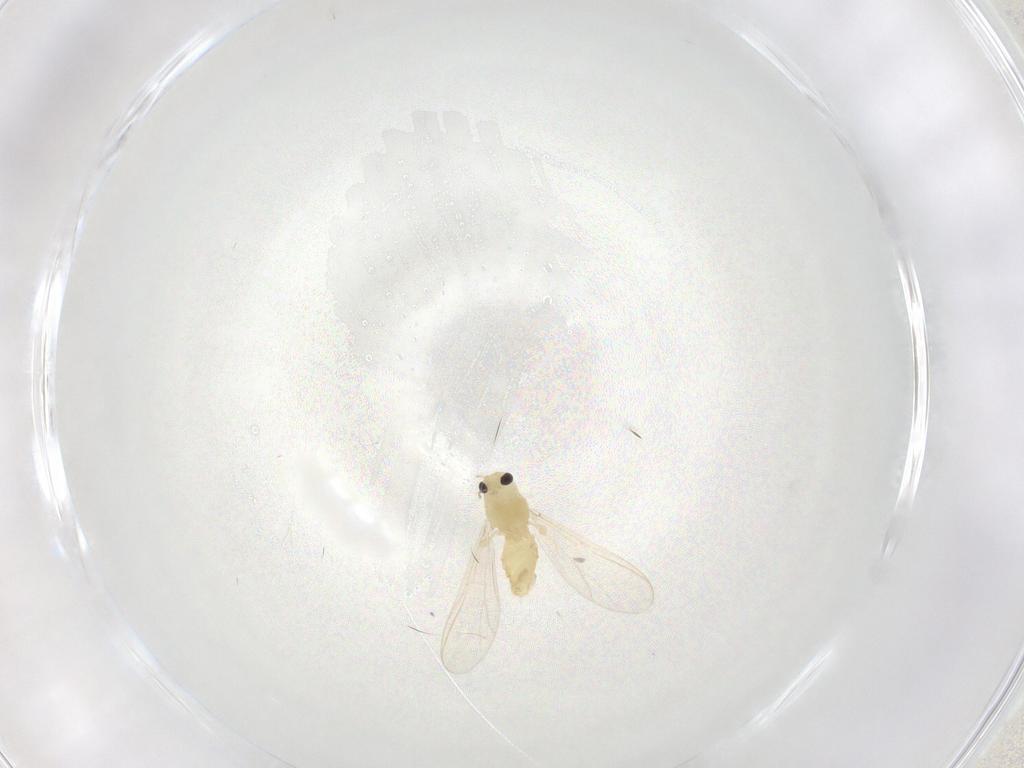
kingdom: Animalia
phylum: Arthropoda
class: Insecta
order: Diptera
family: Chironomidae
